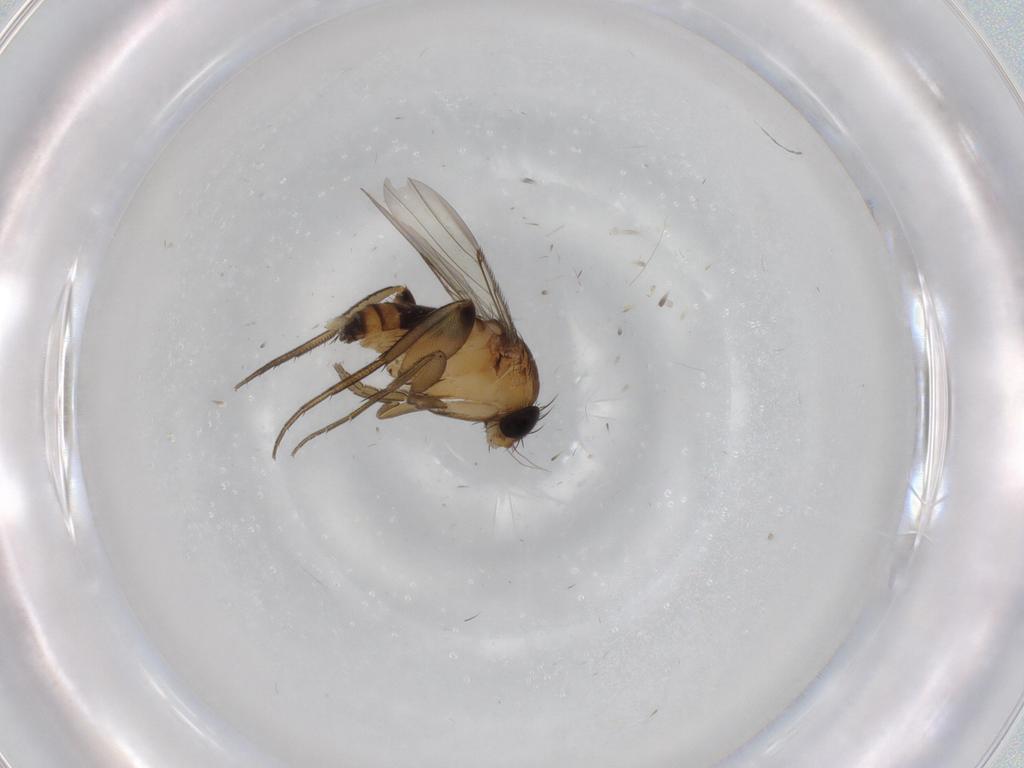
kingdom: Animalia
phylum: Arthropoda
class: Insecta
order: Diptera
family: Phoridae
